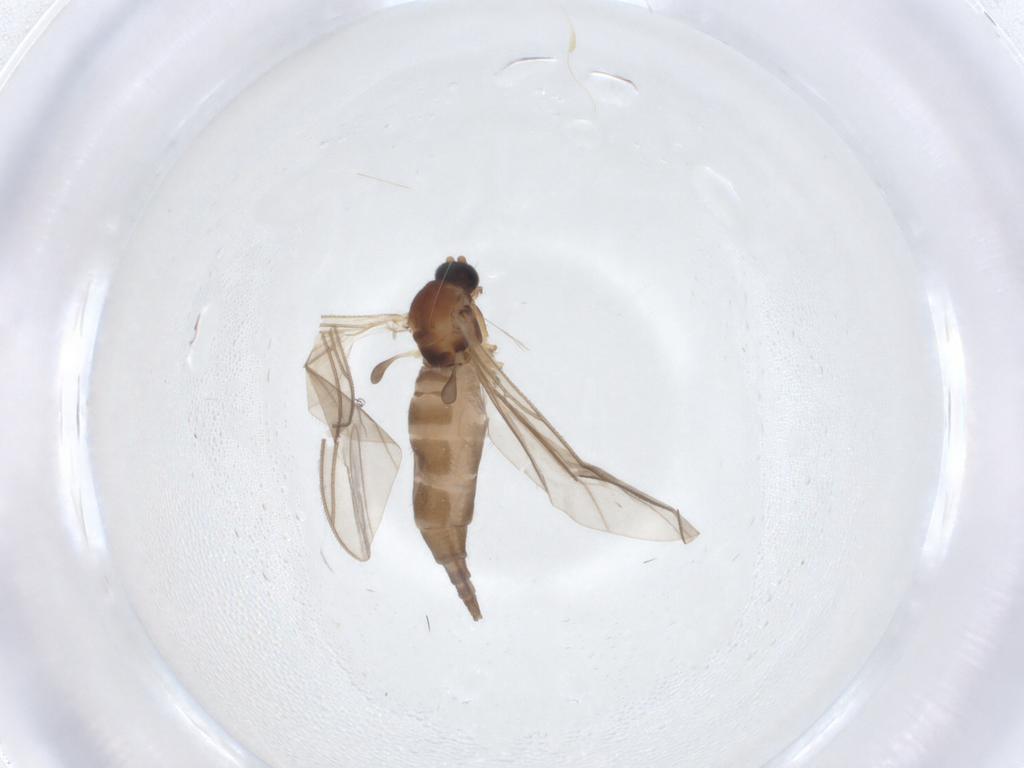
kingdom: Animalia
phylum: Arthropoda
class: Insecta
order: Diptera
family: Sciaridae
